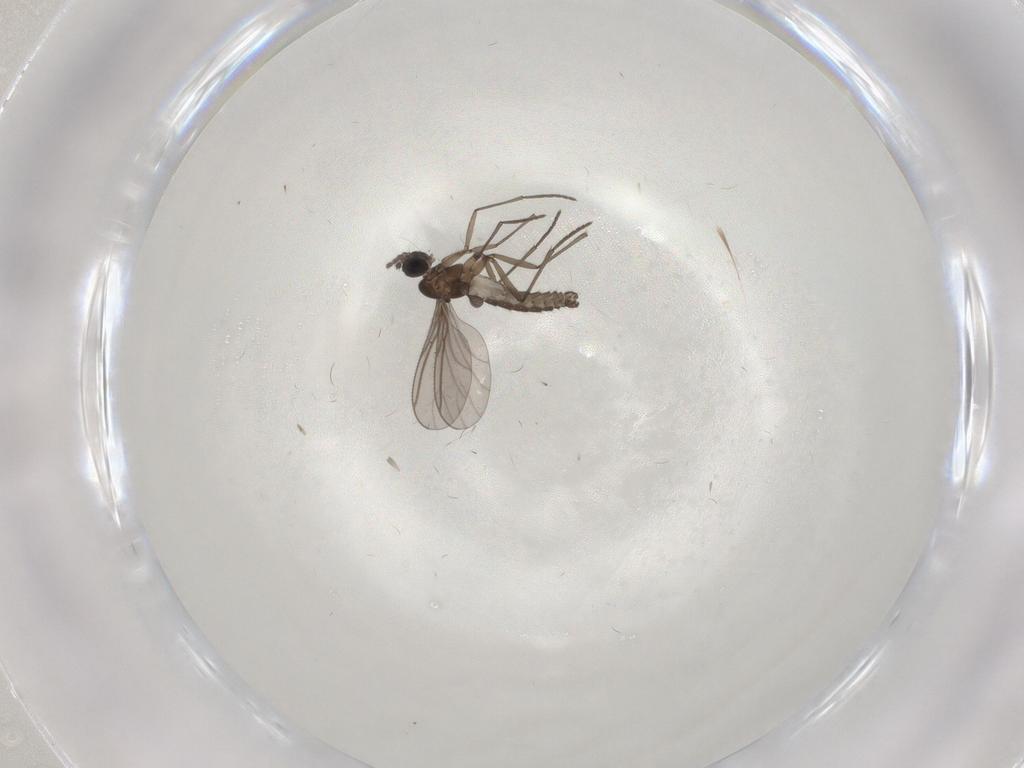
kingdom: Animalia
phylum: Arthropoda
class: Insecta
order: Diptera
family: Cecidomyiidae
